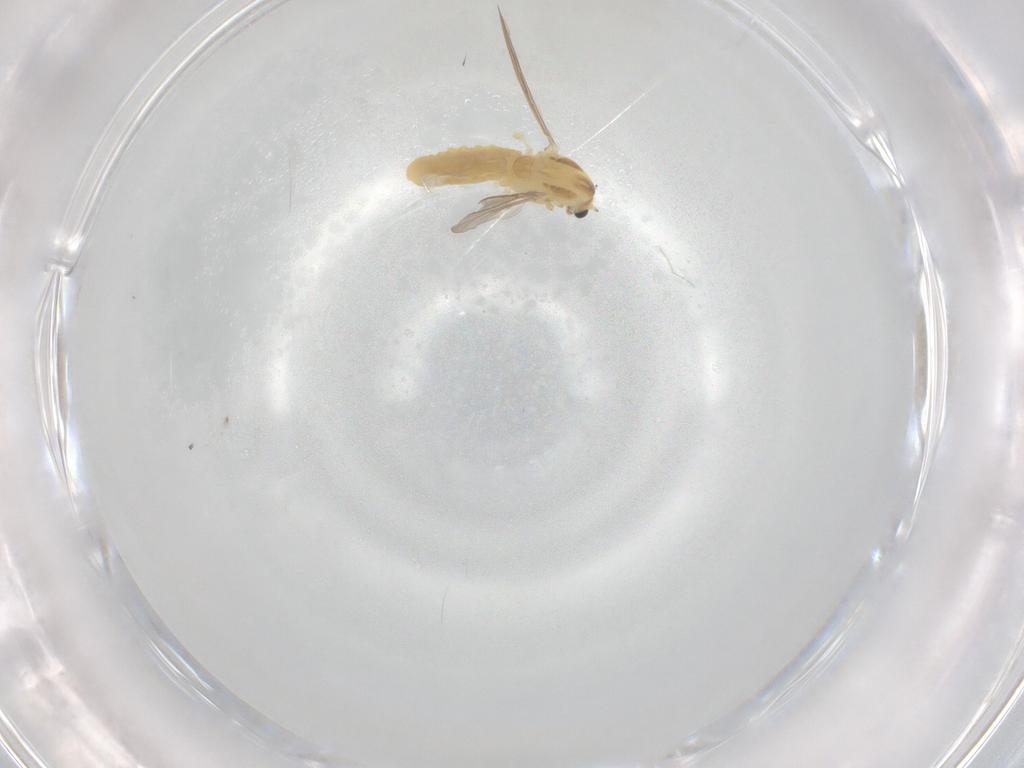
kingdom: Animalia
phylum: Arthropoda
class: Insecta
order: Diptera
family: Chironomidae
